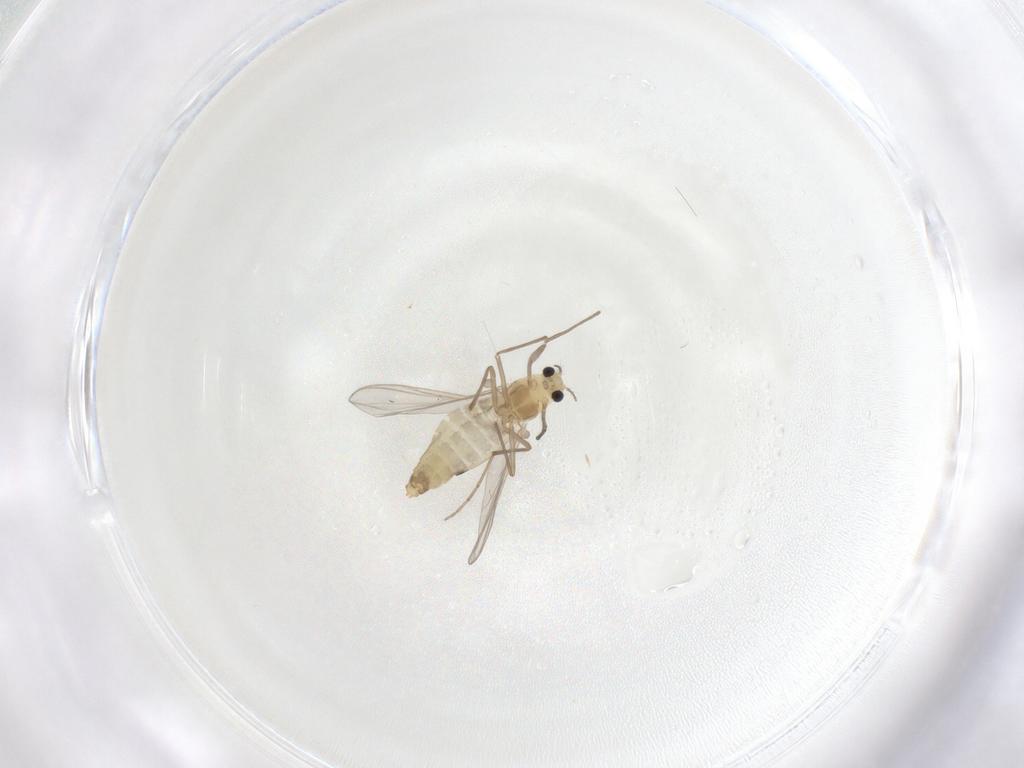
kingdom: Animalia
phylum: Arthropoda
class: Insecta
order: Diptera
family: Chironomidae
